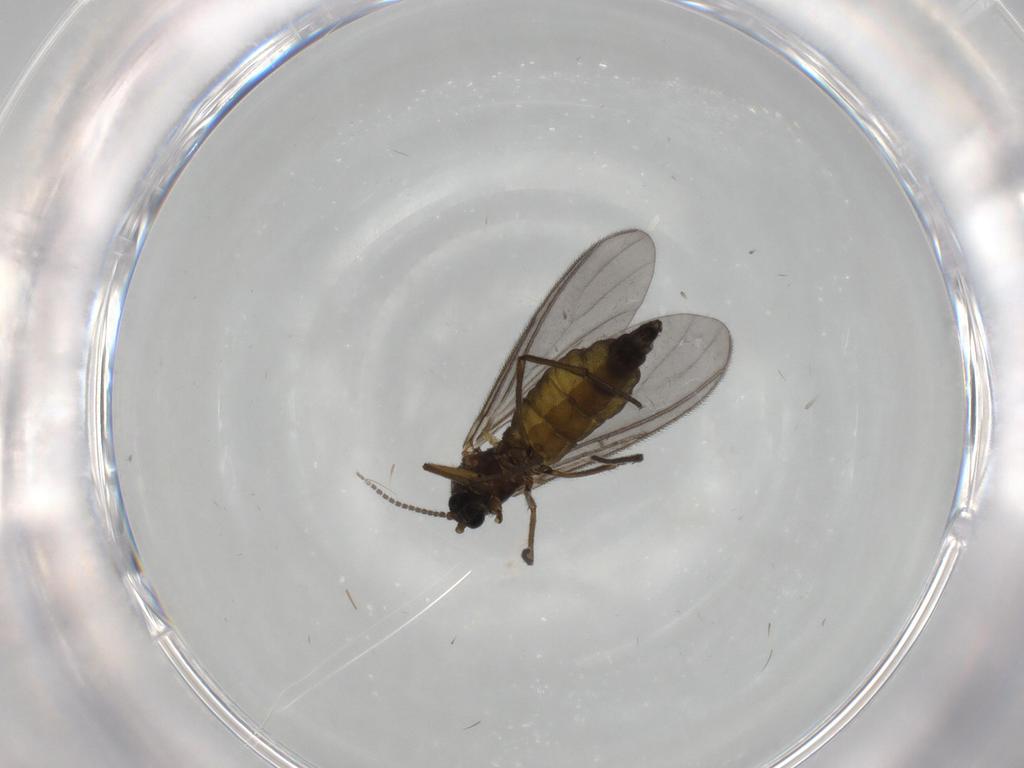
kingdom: Animalia
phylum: Arthropoda
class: Insecta
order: Diptera
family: Sciaridae
